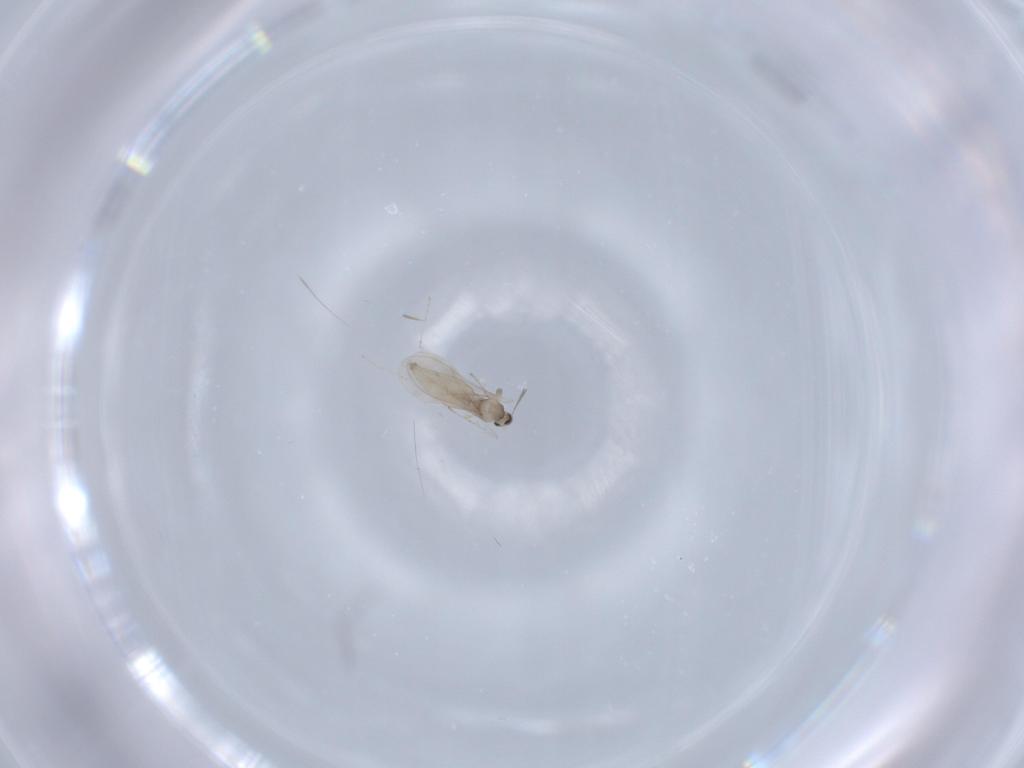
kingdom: Animalia
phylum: Arthropoda
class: Insecta
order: Diptera
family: Cecidomyiidae
